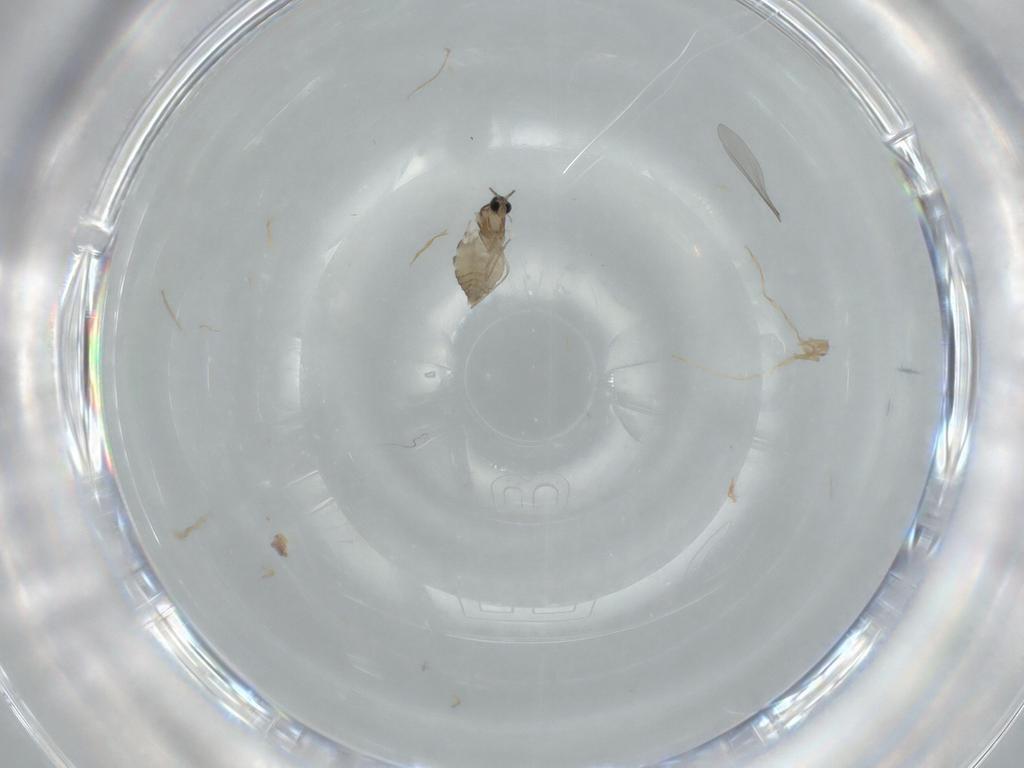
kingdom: Animalia
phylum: Arthropoda
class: Insecta
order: Diptera
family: Cecidomyiidae
